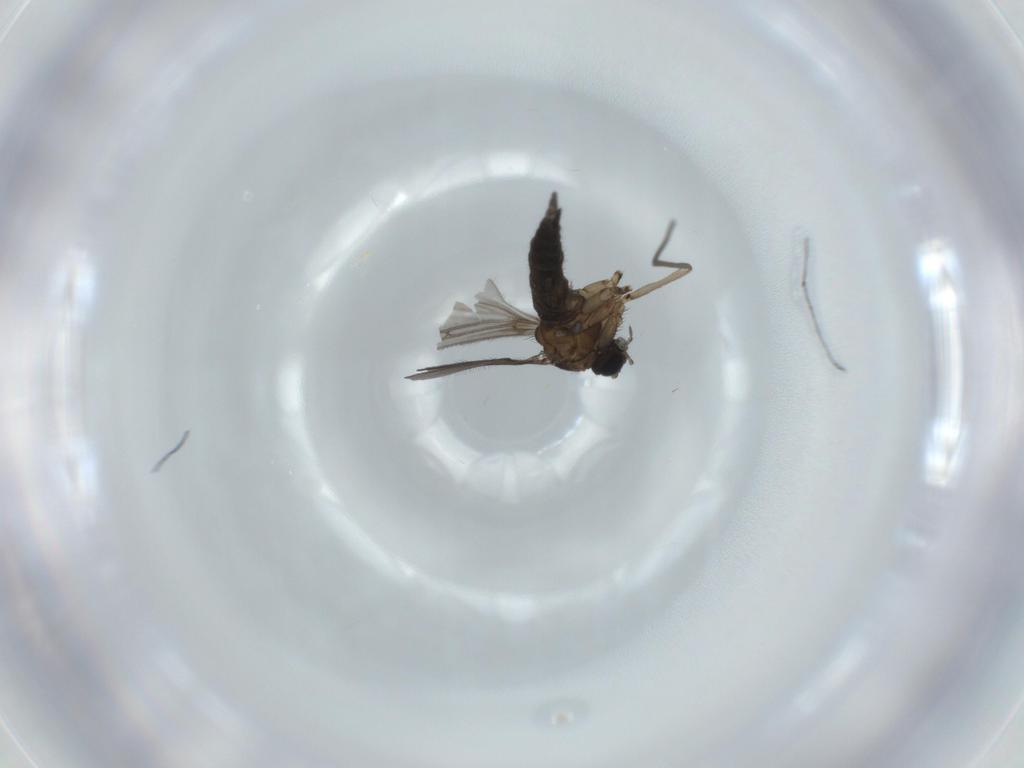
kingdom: Animalia
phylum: Arthropoda
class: Insecta
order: Diptera
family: Sciaridae
